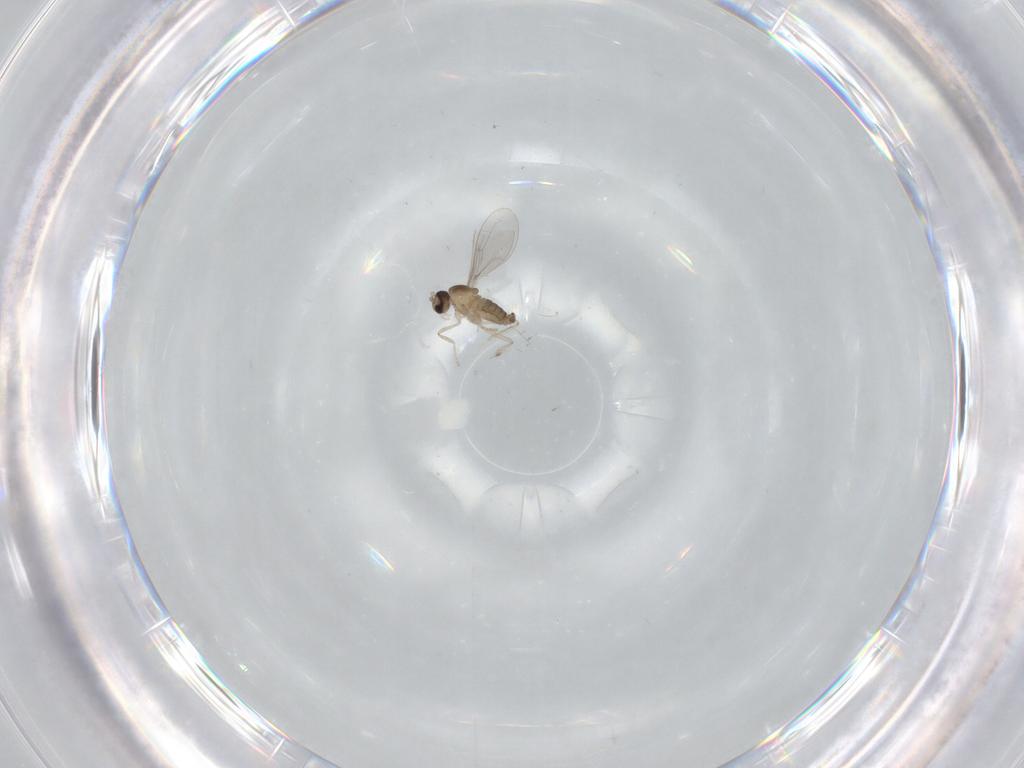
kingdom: Animalia
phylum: Arthropoda
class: Insecta
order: Diptera
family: Cecidomyiidae
